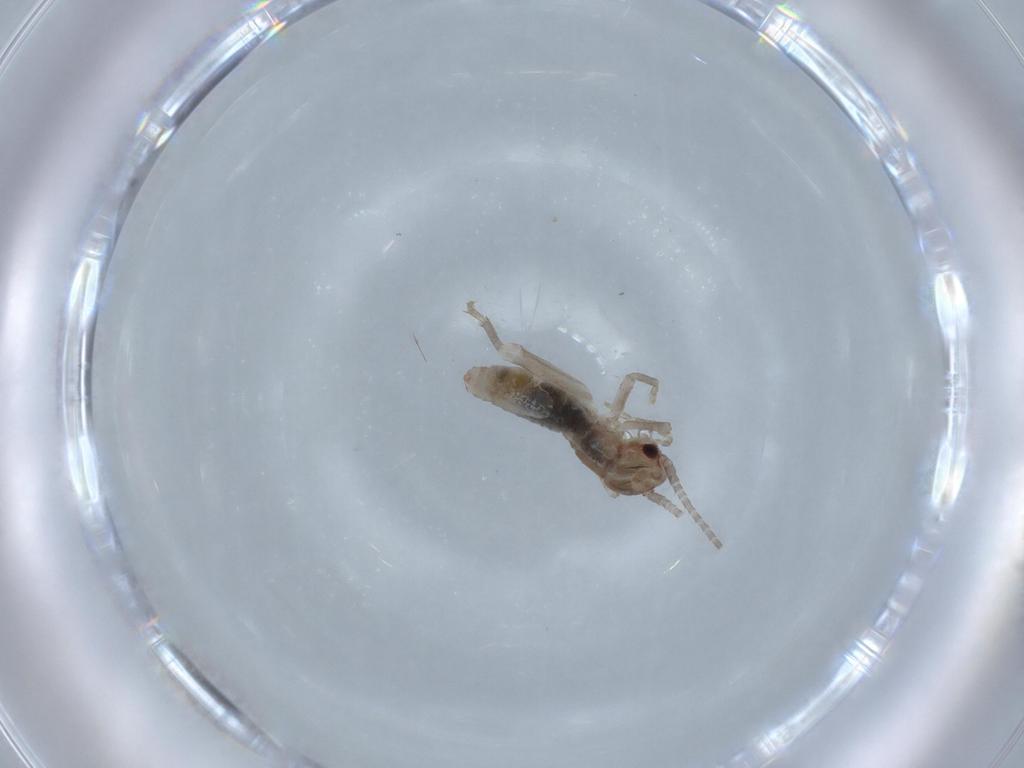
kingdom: Animalia
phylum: Arthropoda
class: Insecta
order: Orthoptera
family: Mogoplistidae
